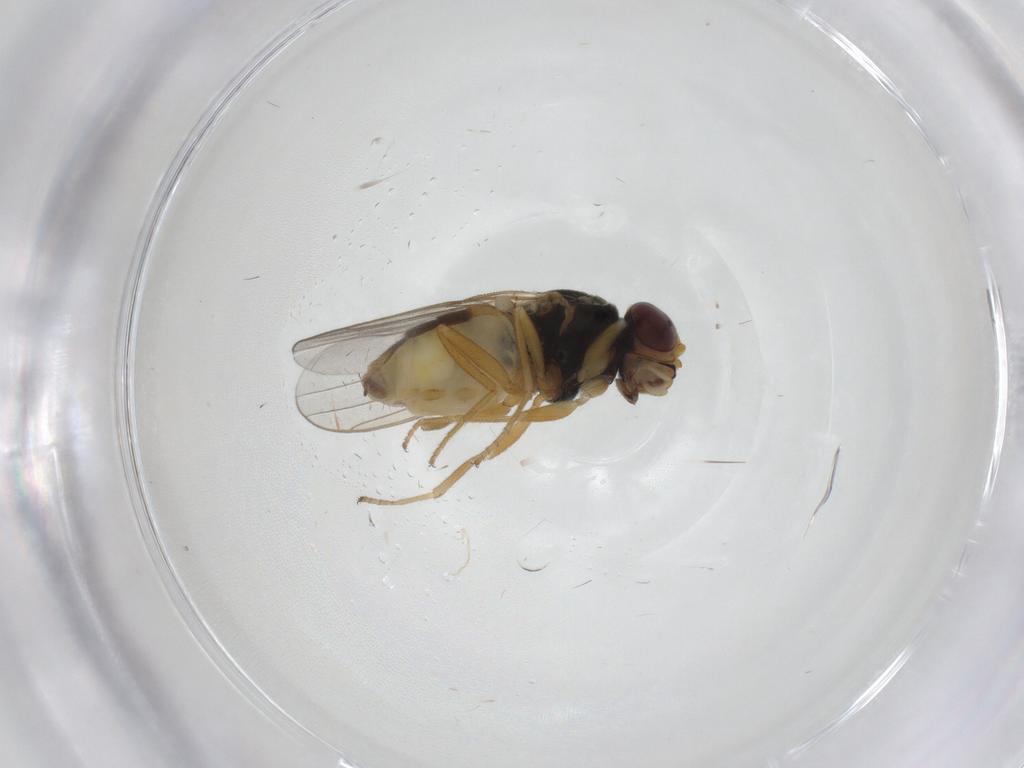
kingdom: Animalia
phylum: Arthropoda
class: Insecta
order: Diptera
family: Chloropidae
